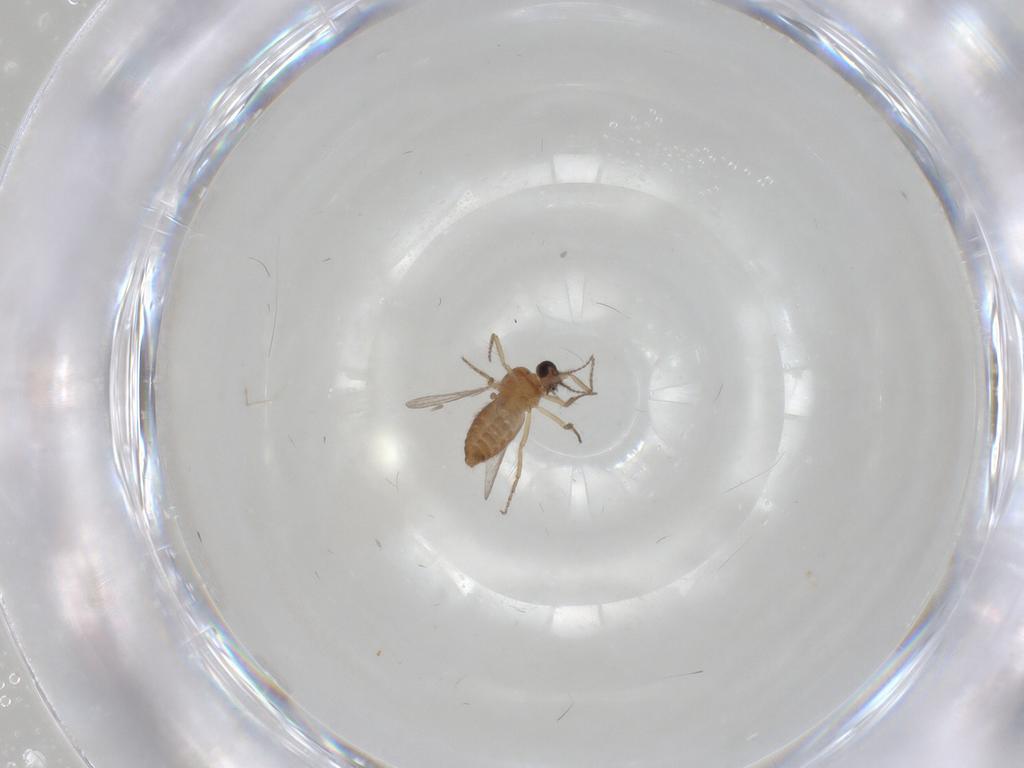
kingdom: Animalia
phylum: Arthropoda
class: Insecta
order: Diptera
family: Ceratopogonidae
